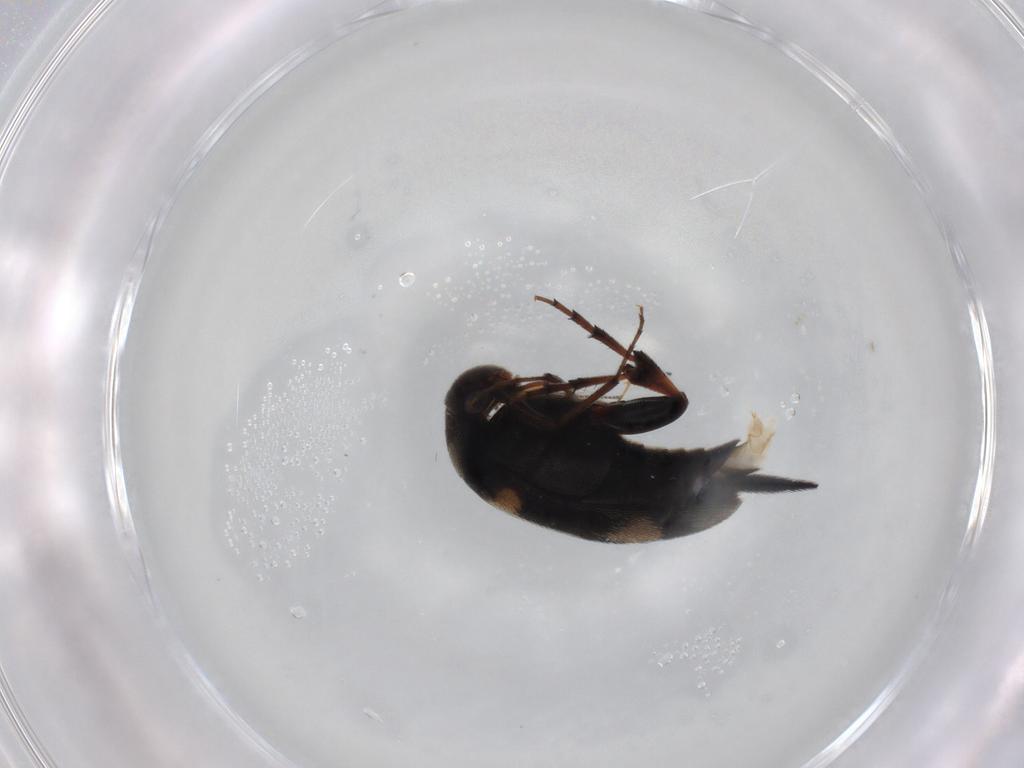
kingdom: Animalia
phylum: Arthropoda
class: Insecta
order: Coleoptera
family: Mordellidae
